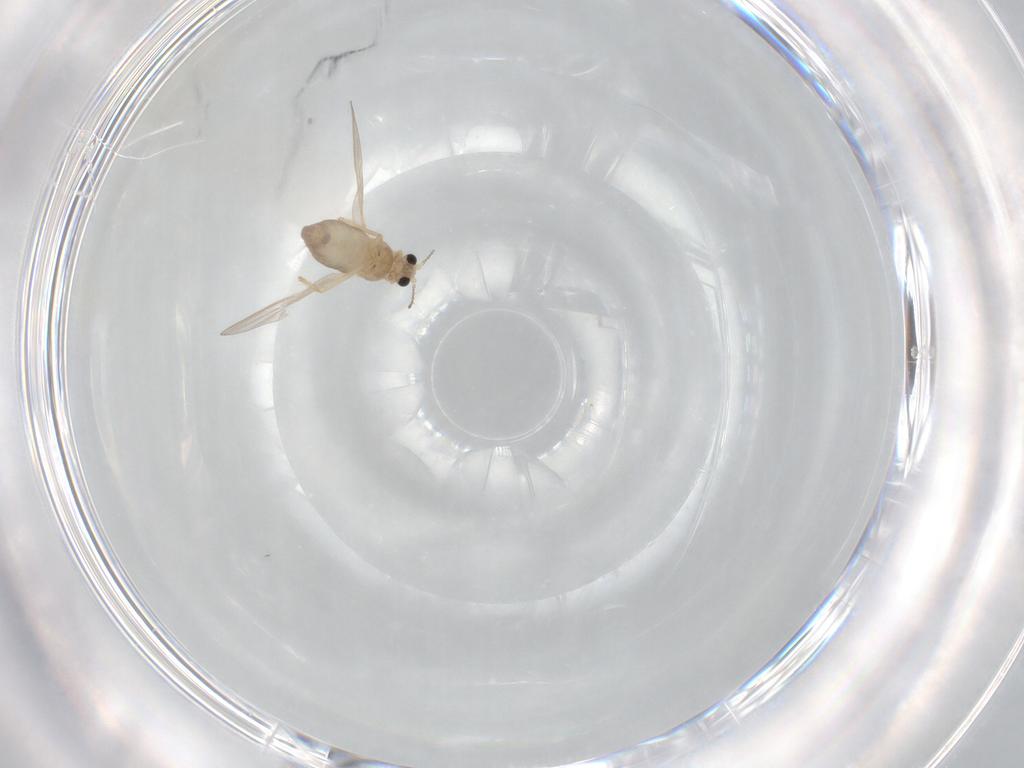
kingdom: Animalia
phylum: Arthropoda
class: Insecta
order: Diptera
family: Chironomidae
